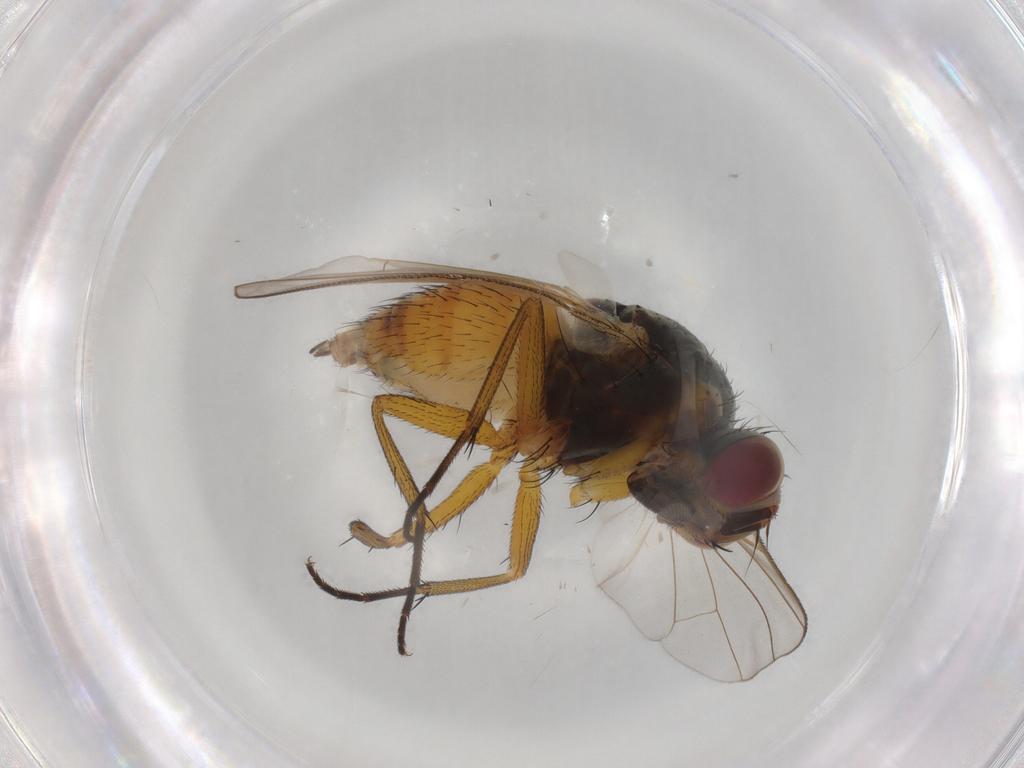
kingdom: Animalia
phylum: Arthropoda
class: Insecta
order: Diptera
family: Muscidae
